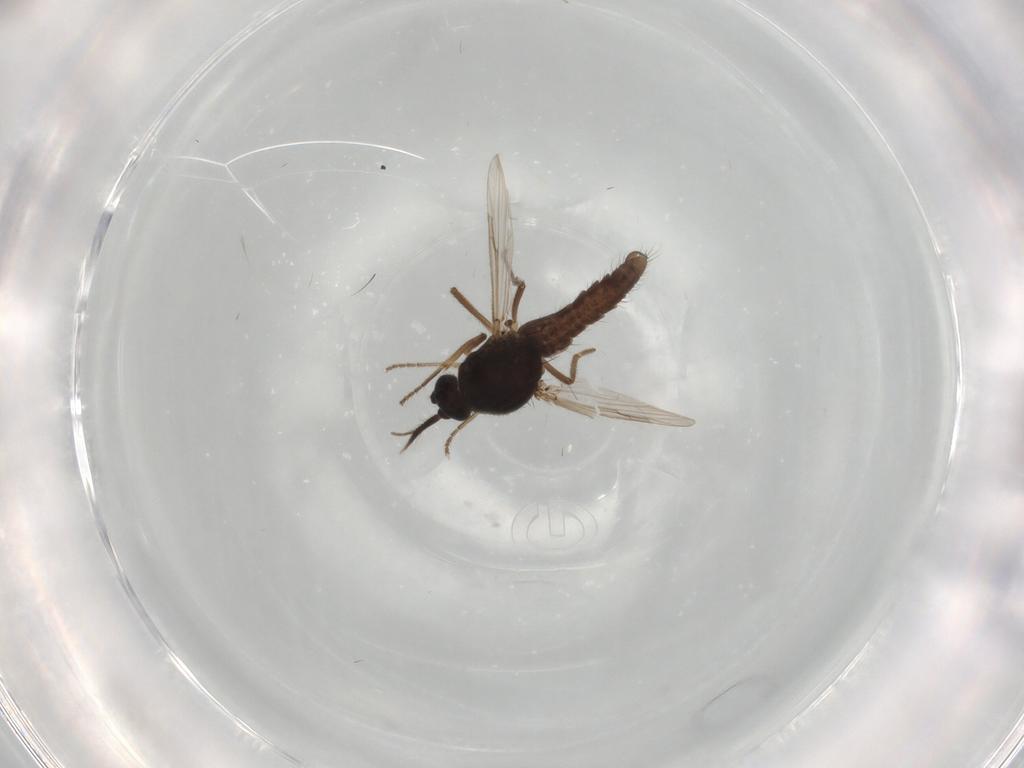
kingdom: Animalia
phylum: Arthropoda
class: Insecta
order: Diptera
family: Ceratopogonidae
